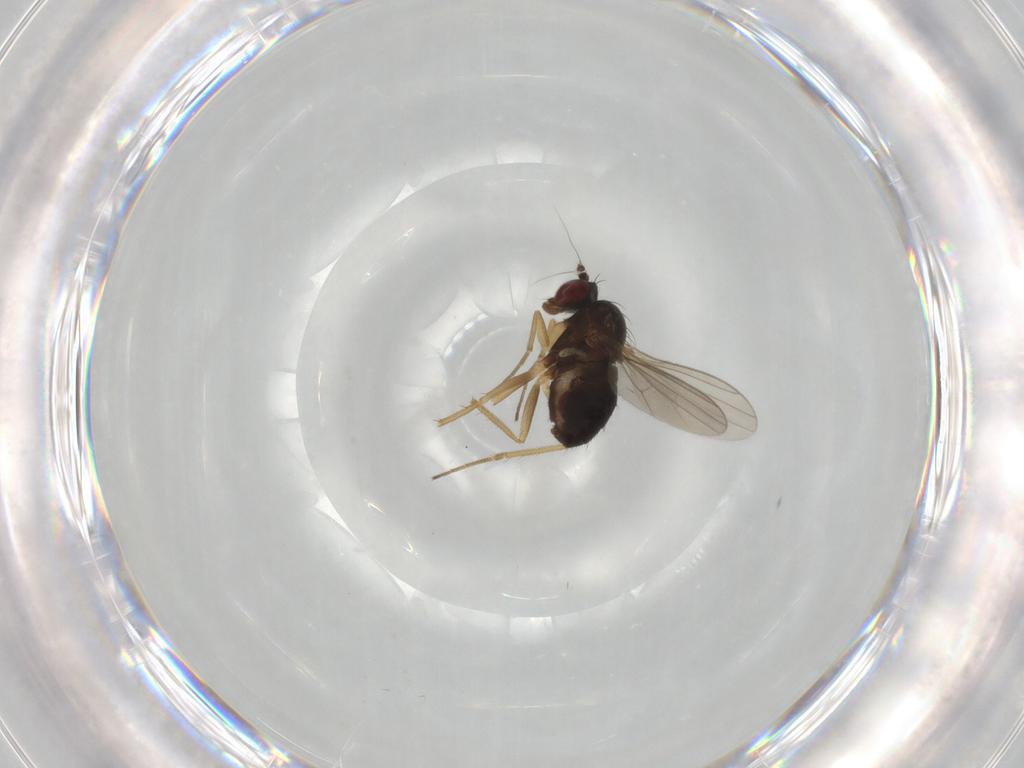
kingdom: Animalia
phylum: Arthropoda
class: Insecta
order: Diptera
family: Dolichopodidae
